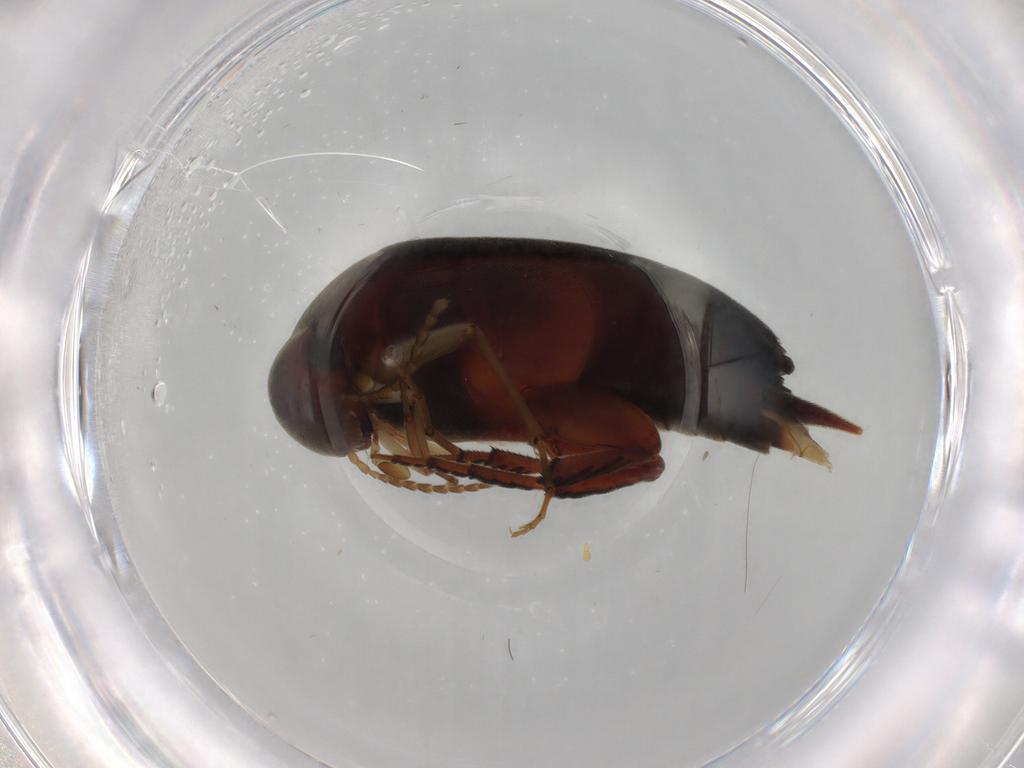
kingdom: Animalia
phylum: Arthropoda
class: Insecta
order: Coleoptera
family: Mordellidae
